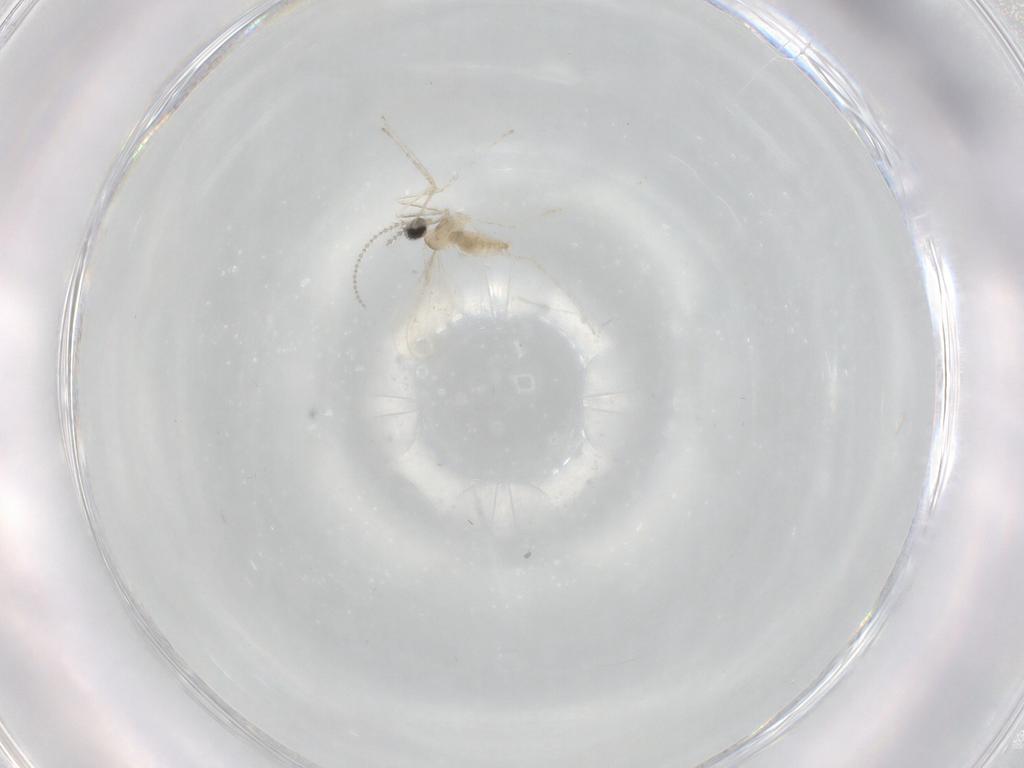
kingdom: Animalia
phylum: Arthropoda
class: Insecta
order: Diptera
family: Cecidomyiidae
